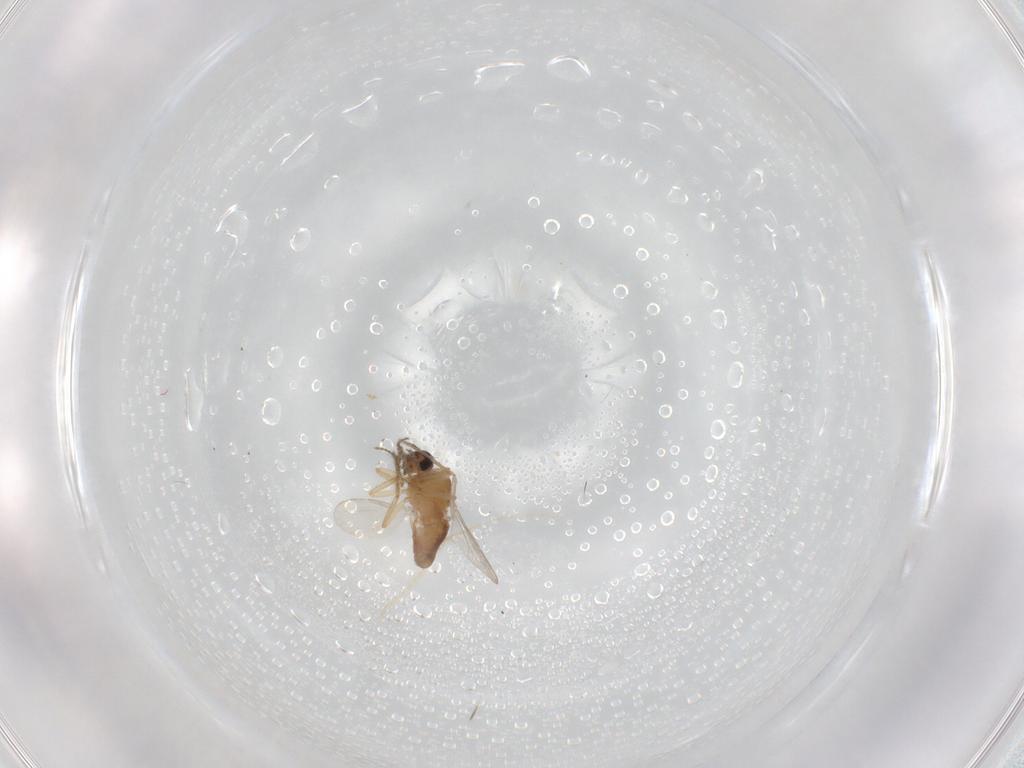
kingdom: Animalia
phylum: Arthropoda
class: Insecta
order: Diptera
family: Ceratopogonidae
